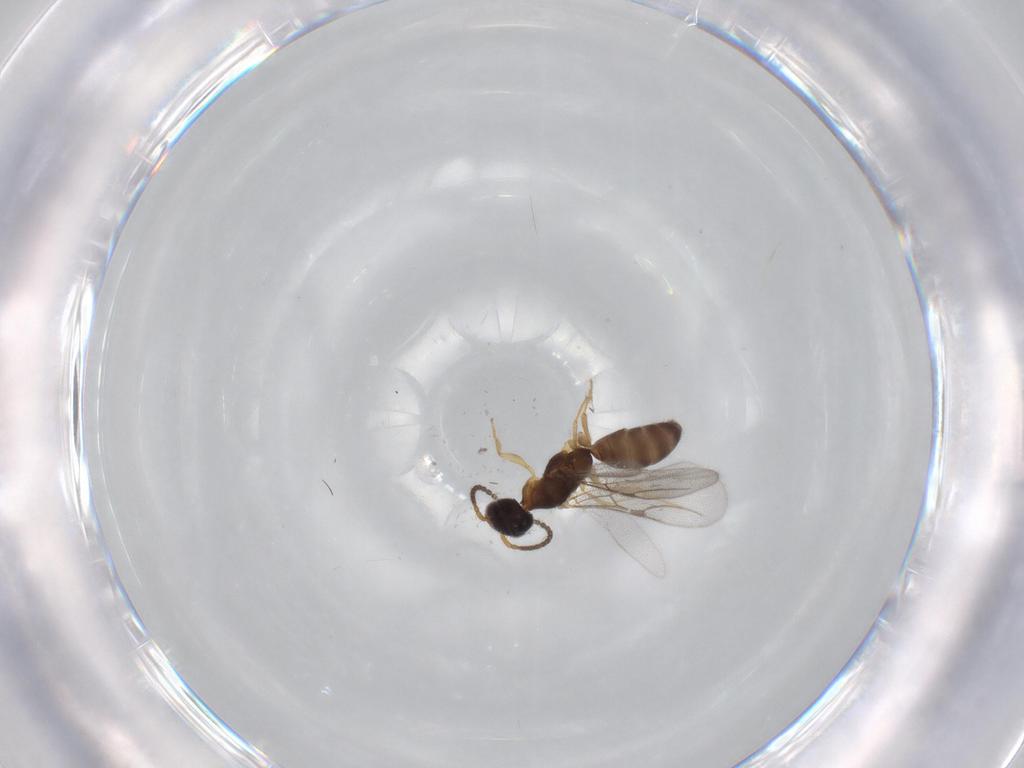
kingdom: Animalia
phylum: Arthropoda
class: Insecta
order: Hymenoptera
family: Bethylidae
